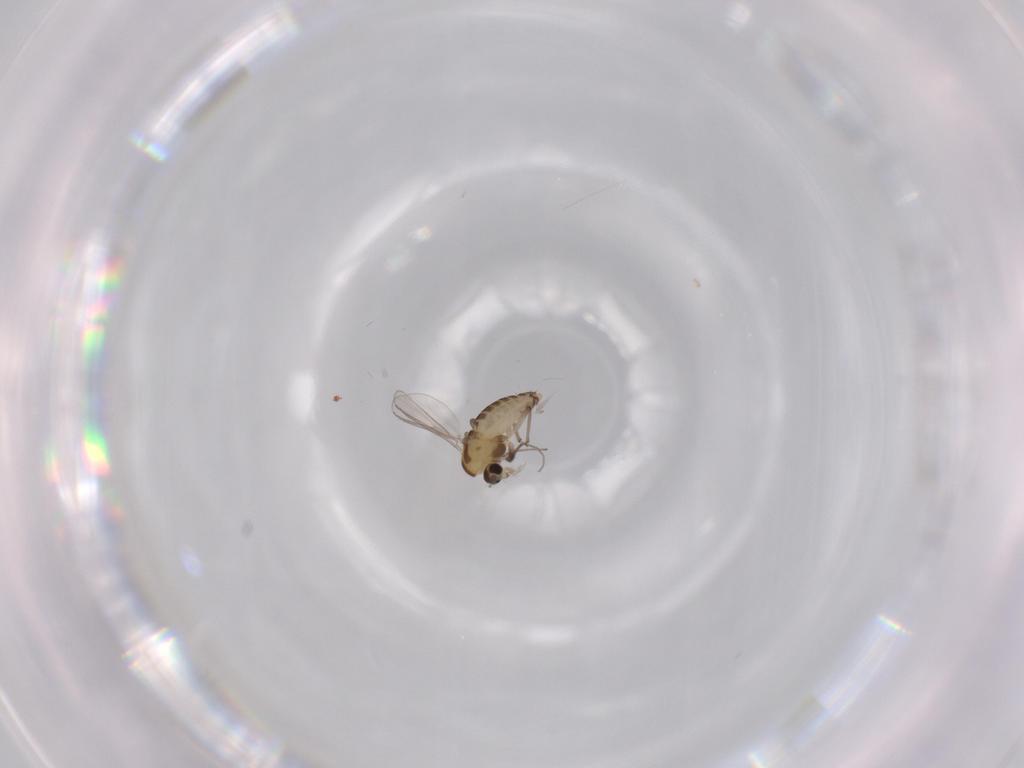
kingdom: Animalia
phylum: Arthropoda
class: Insecta
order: Diptera
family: Chironomidae
